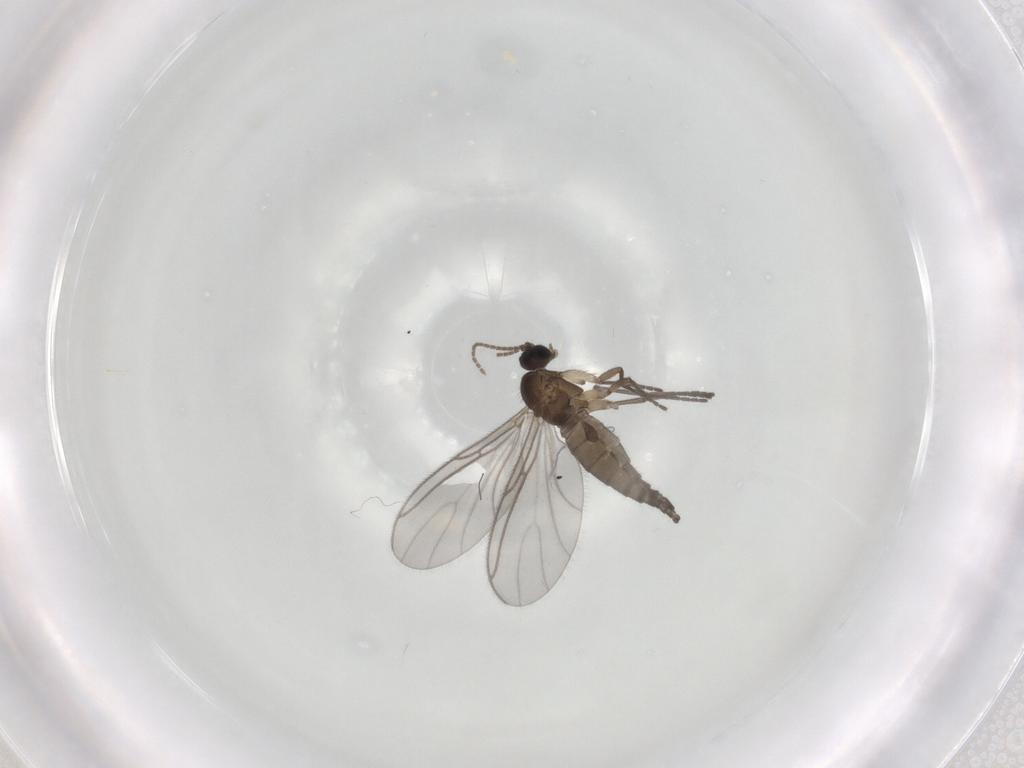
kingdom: Animalia
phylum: Arthropoda
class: Insecta
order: Diptera
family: Sciaridae
